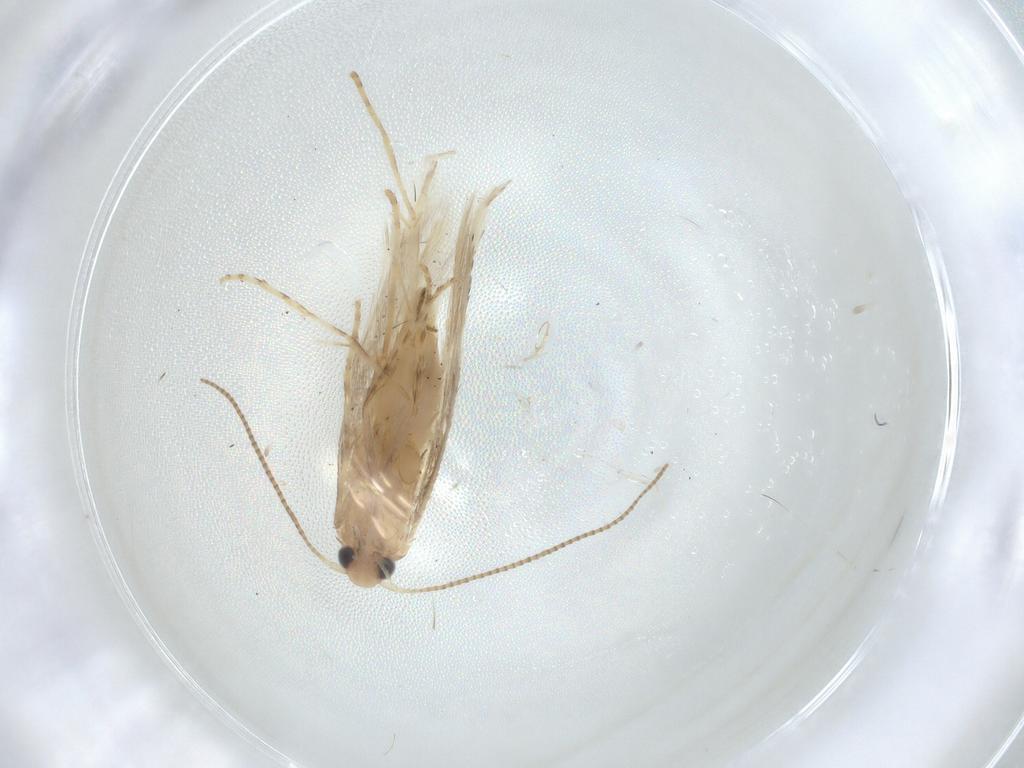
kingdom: Animalia
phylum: Arthropoda
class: Insecta
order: Lepidoptera
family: Gracillariidae
